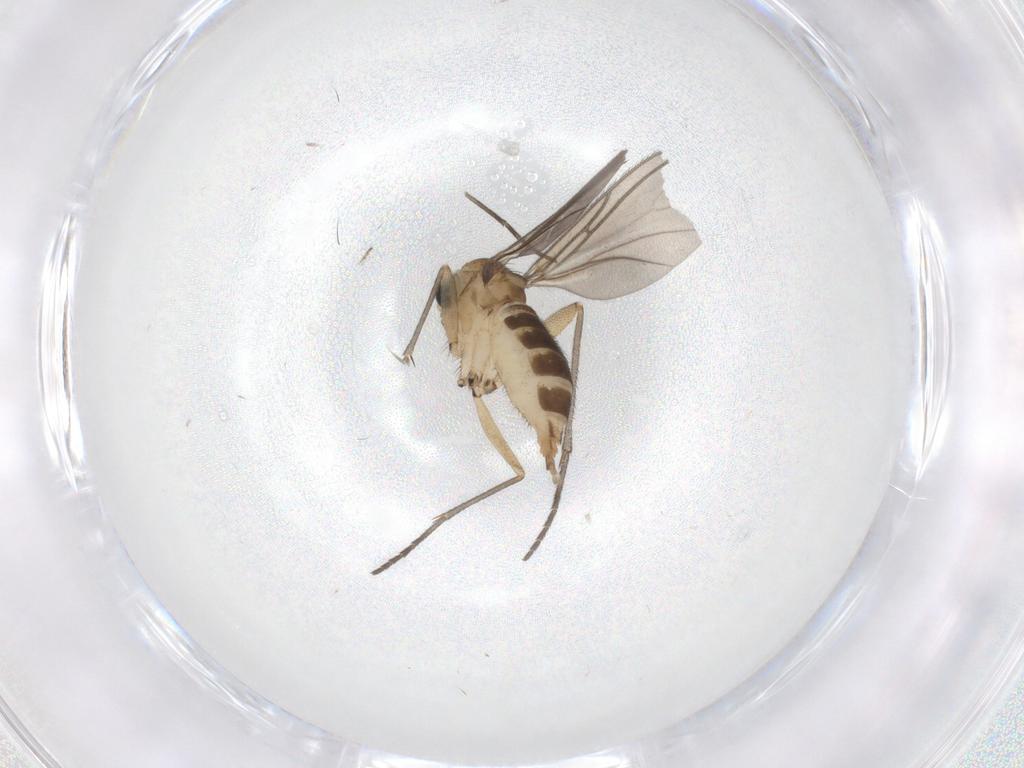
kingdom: Animalia
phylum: Arthropoda
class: Insecta
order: Diptera
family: Sciaridae
